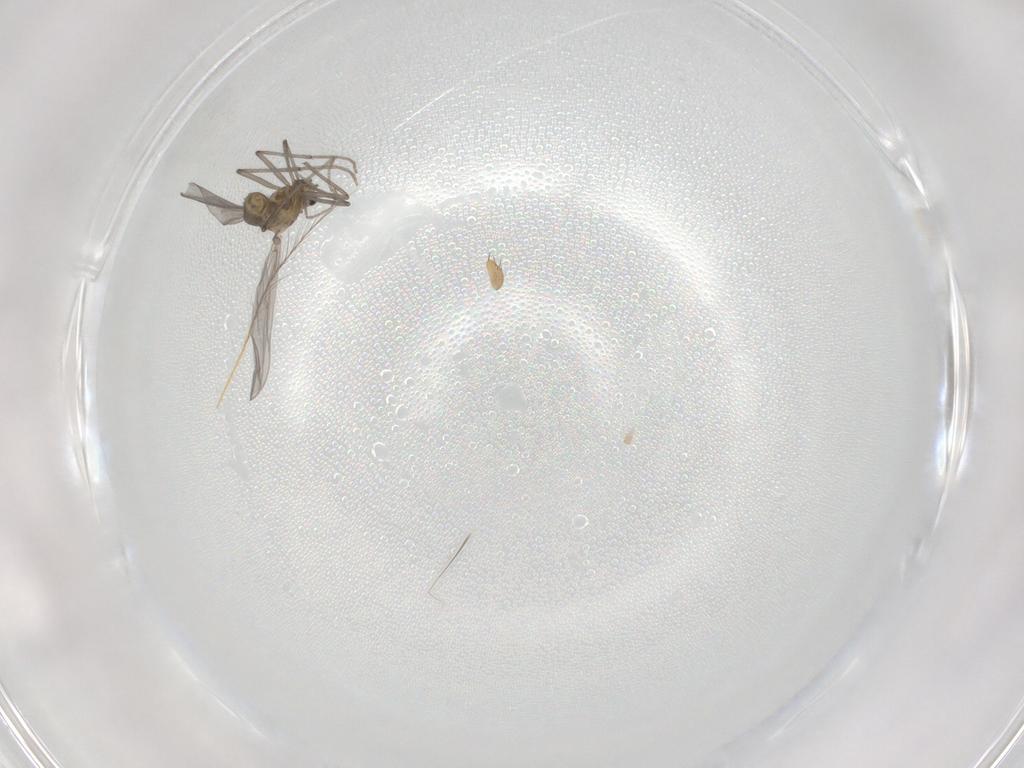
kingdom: Animalia
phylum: Arthropoda
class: Insecta
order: Diptera
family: Chironomidae
